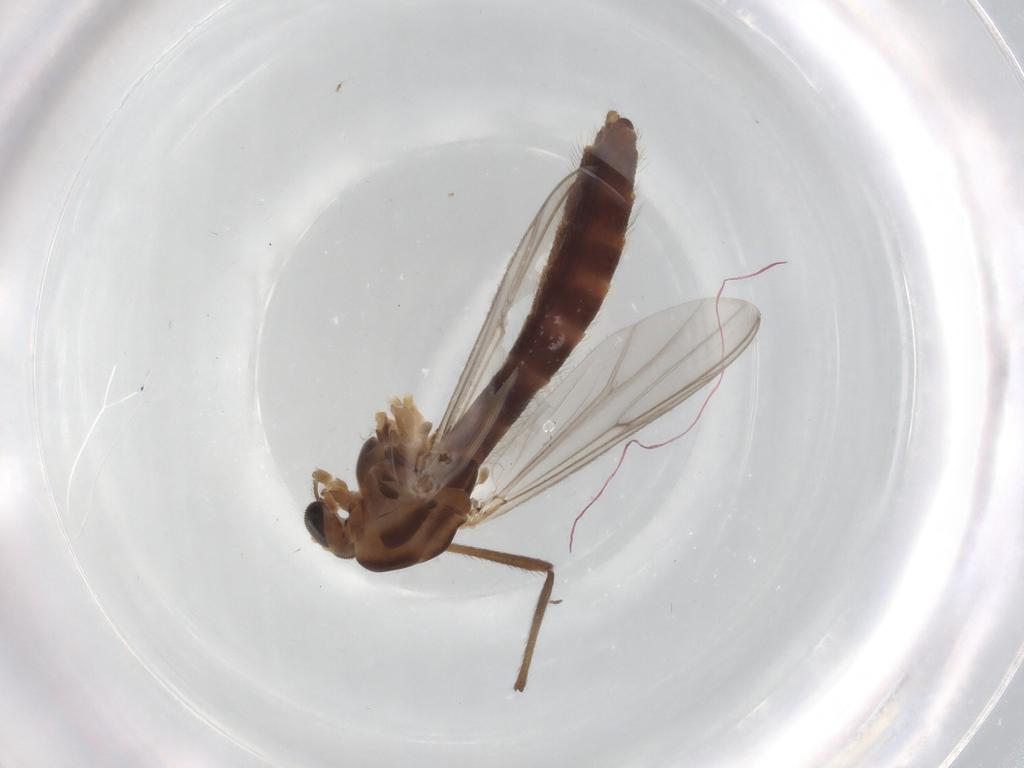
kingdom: Animalia
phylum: Arthropoda
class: Insecta
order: Diptera
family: Chironomidae
